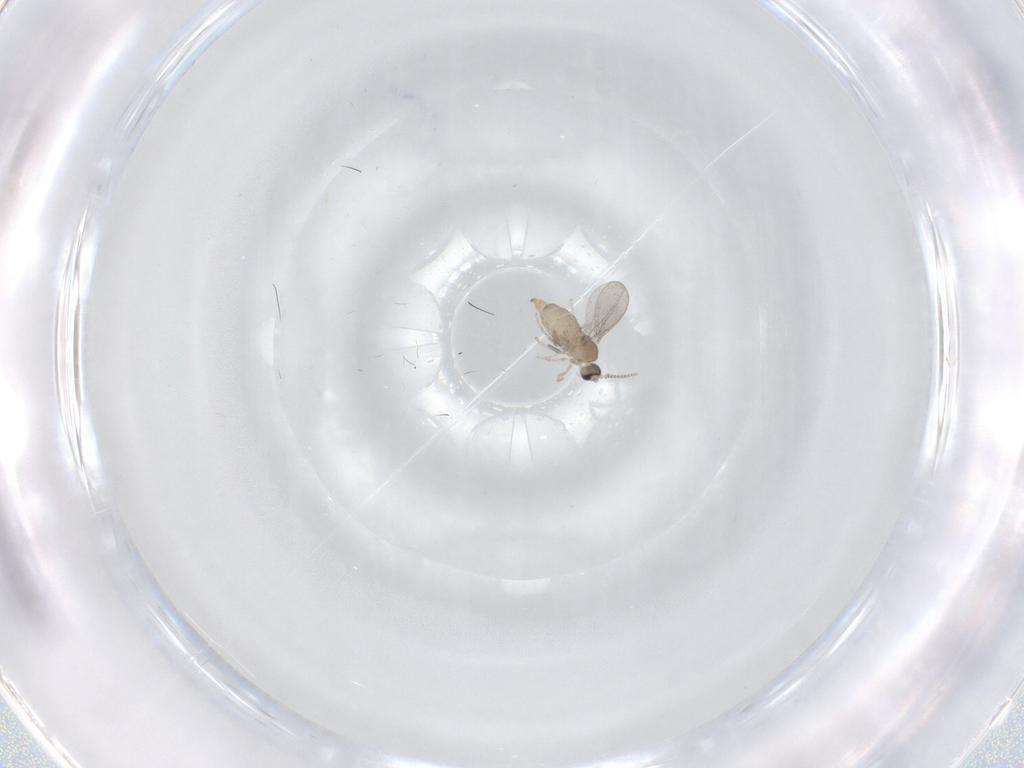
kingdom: Animalia
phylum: Arthropoda
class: Insecta
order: Diptera
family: Cecidomyiidae
